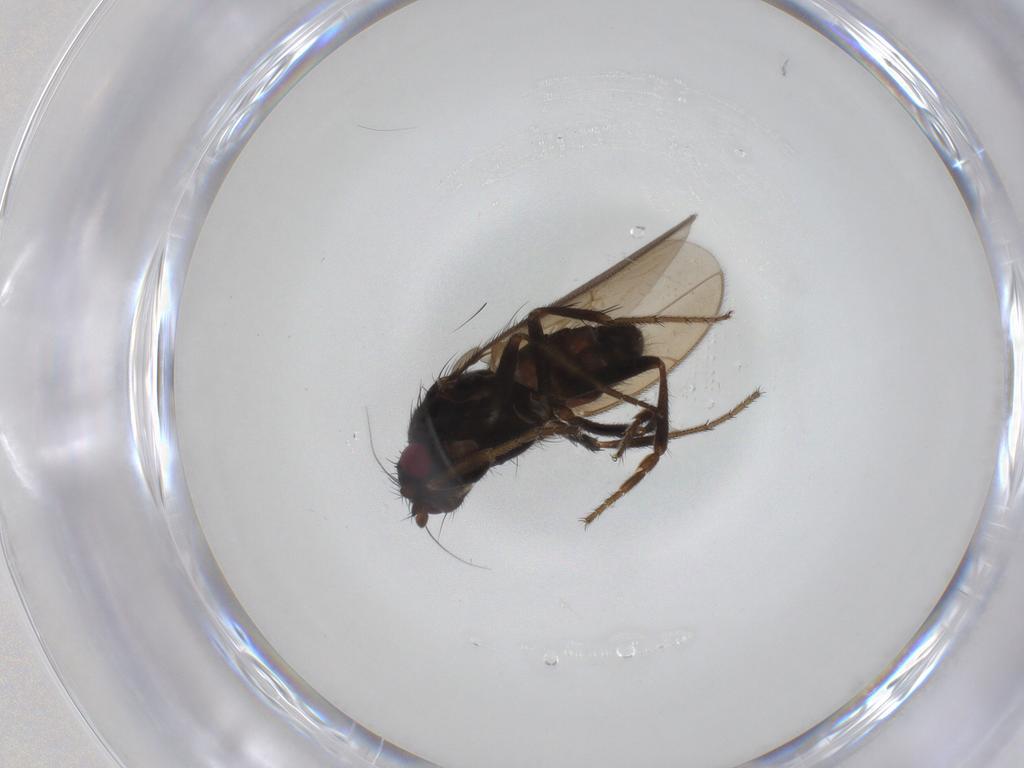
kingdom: Animalia
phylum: Arthropoda
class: Insecta
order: Diptera
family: Sphaeroceridae
